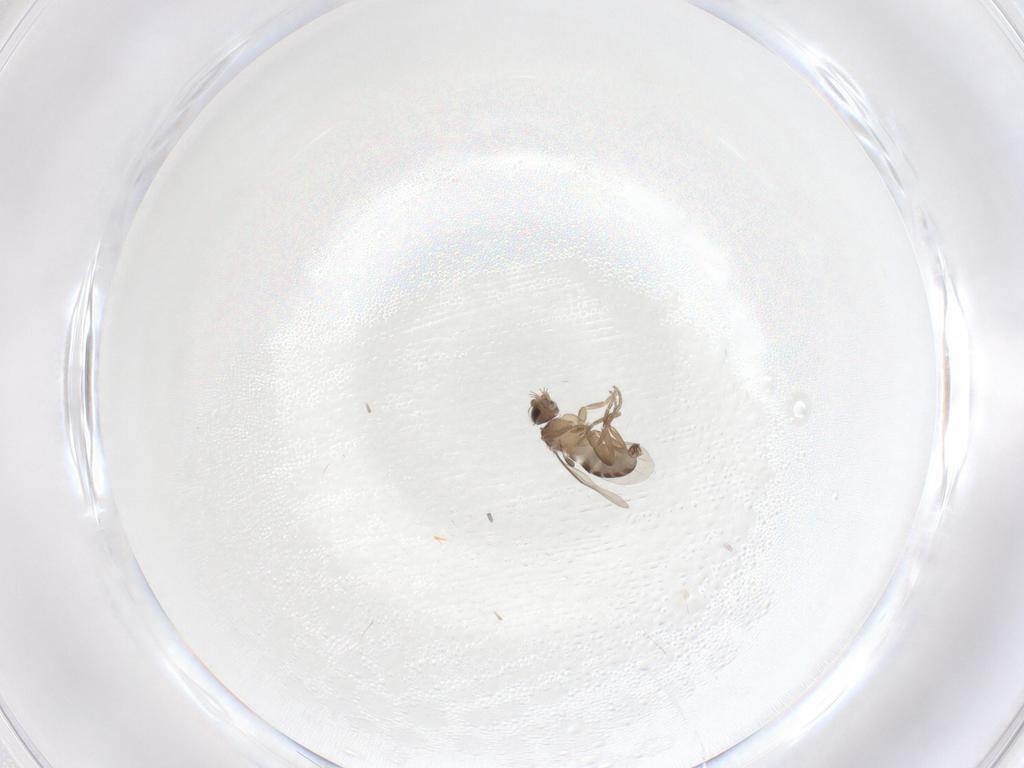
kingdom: Animalia
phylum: Arthropoda
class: Insecta
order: Diptera
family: Phoridae
